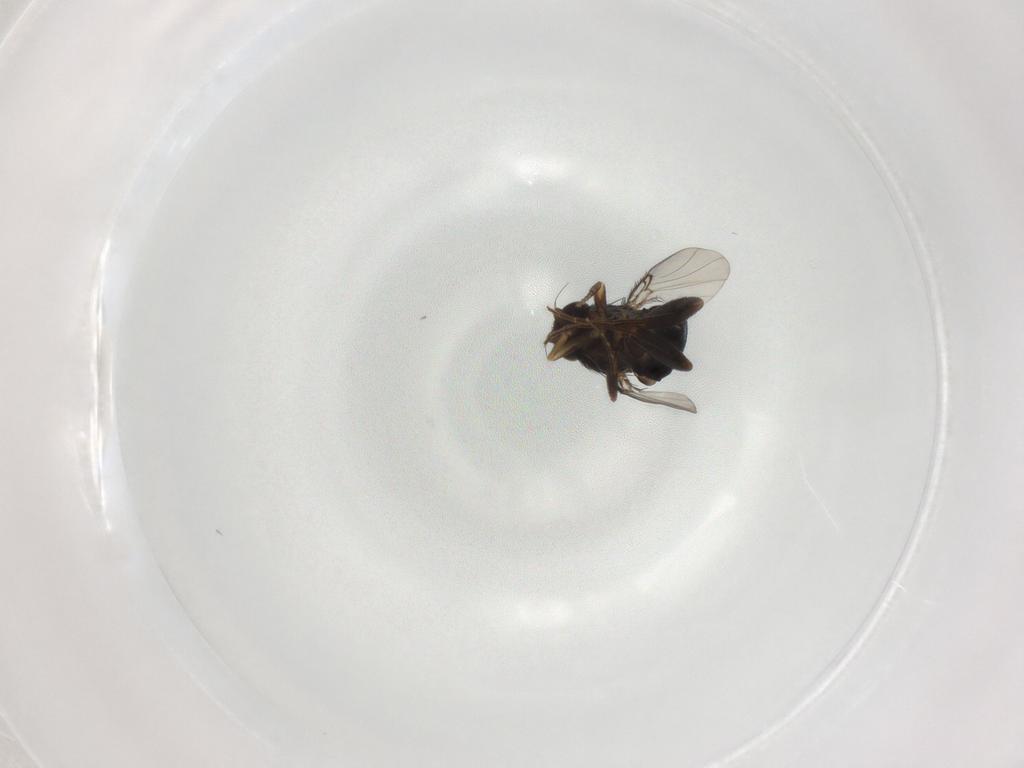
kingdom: Animalia
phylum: Arthropoda
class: Insecta
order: Diptera
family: Phoridae
